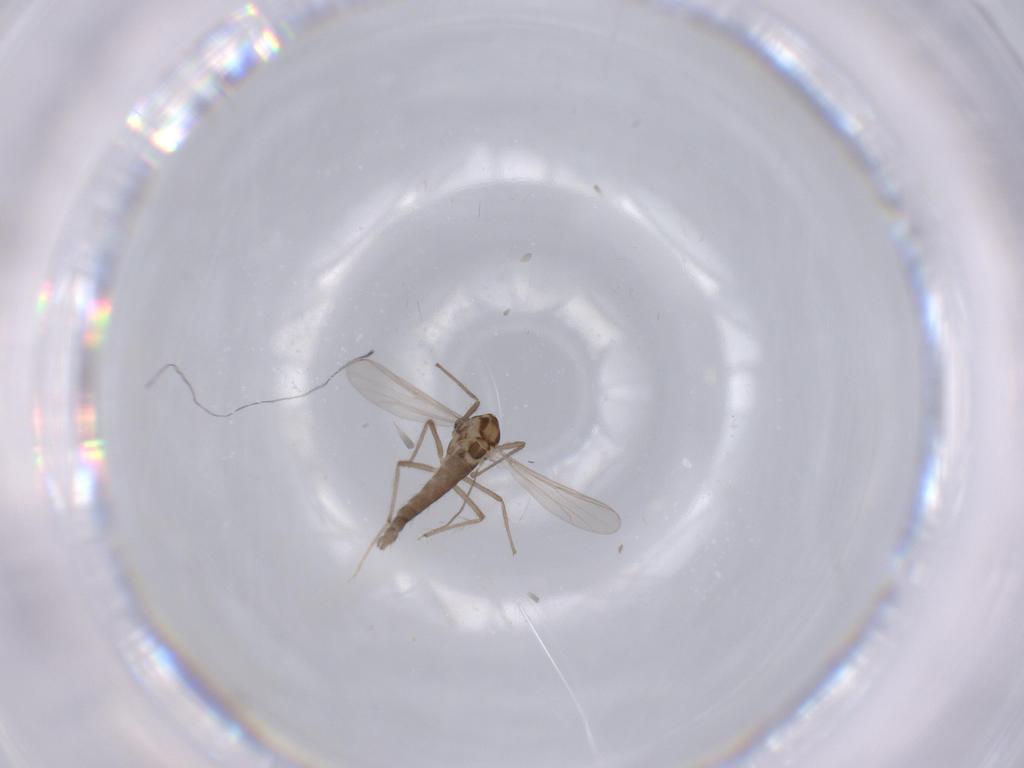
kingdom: Animalia
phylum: Arthropoda
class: Insecta
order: Diptera
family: Chironomidae
